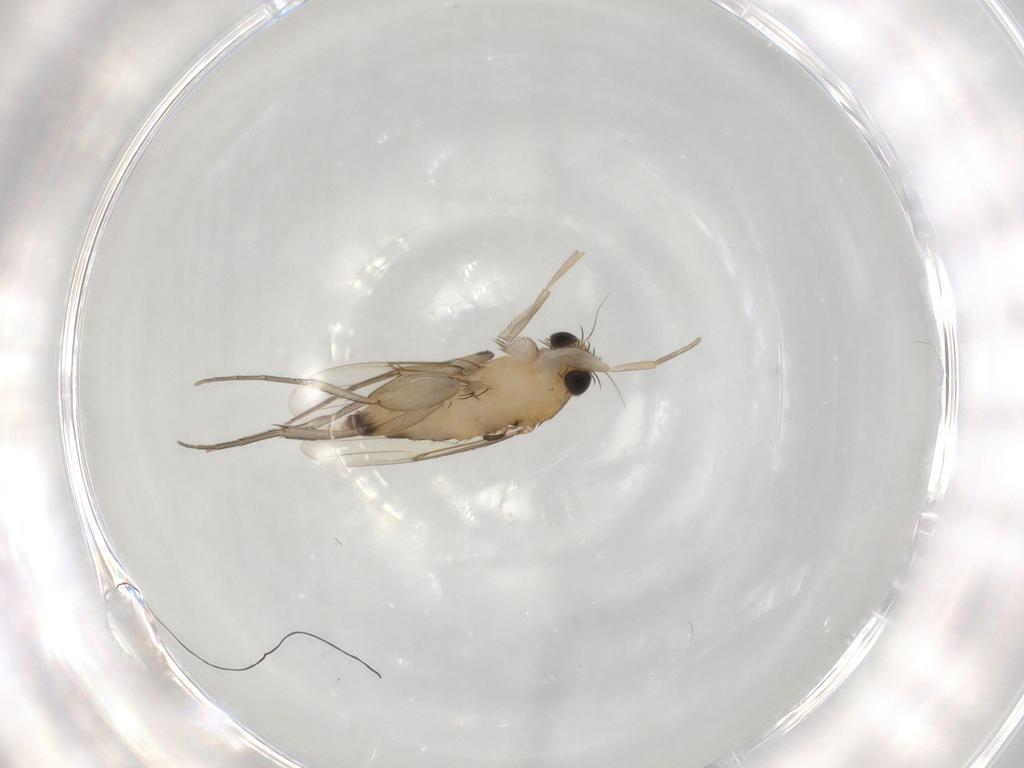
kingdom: Animalia
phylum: Arthropoda
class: Insecta
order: Diptera
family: Phoridae
